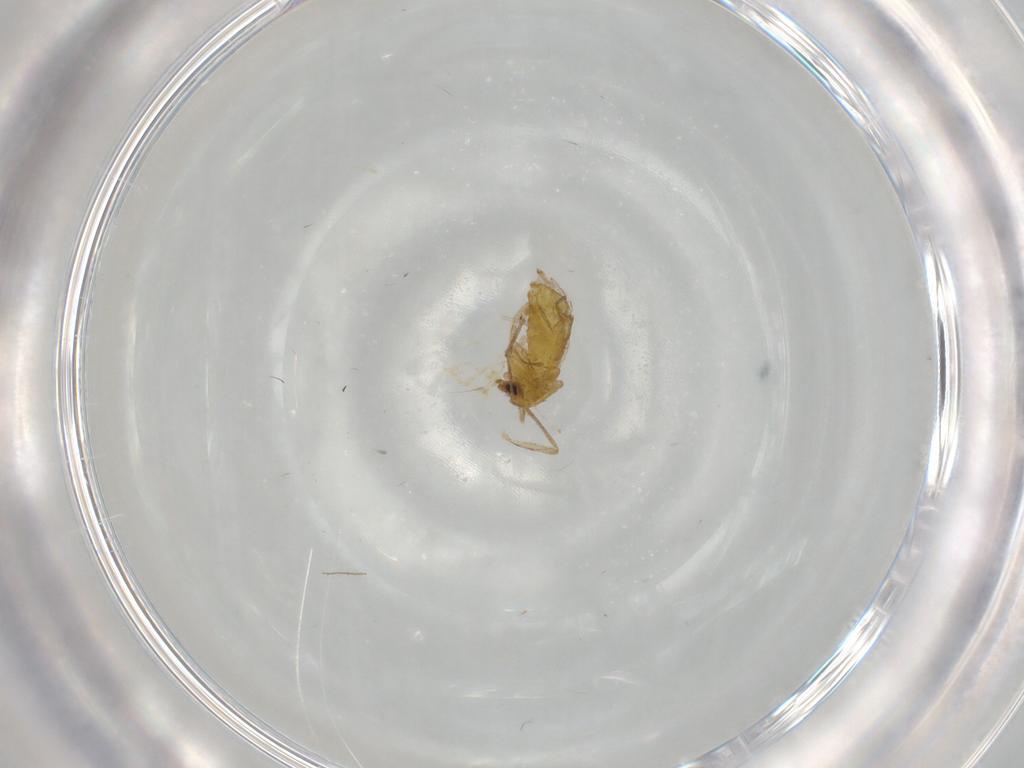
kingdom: Animalia
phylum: Arthropoda
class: Insecta
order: Diptera
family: Chironomidae
